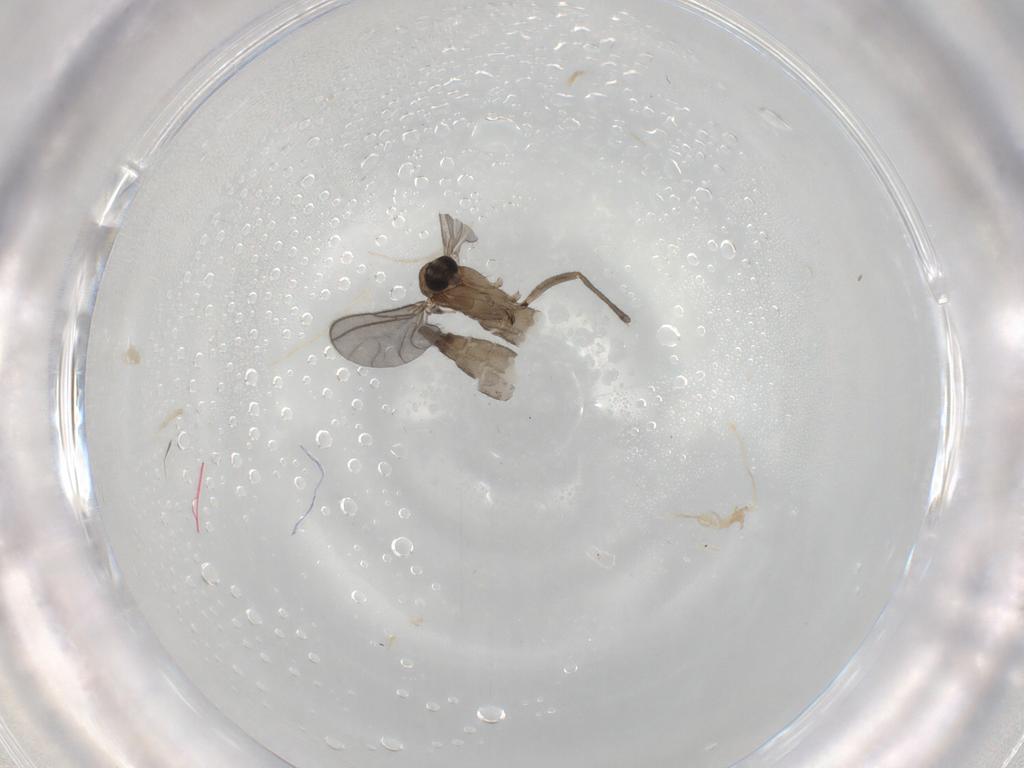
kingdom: Animalia
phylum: Arthropoda
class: Insecta
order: Diptera
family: Sciaridae
